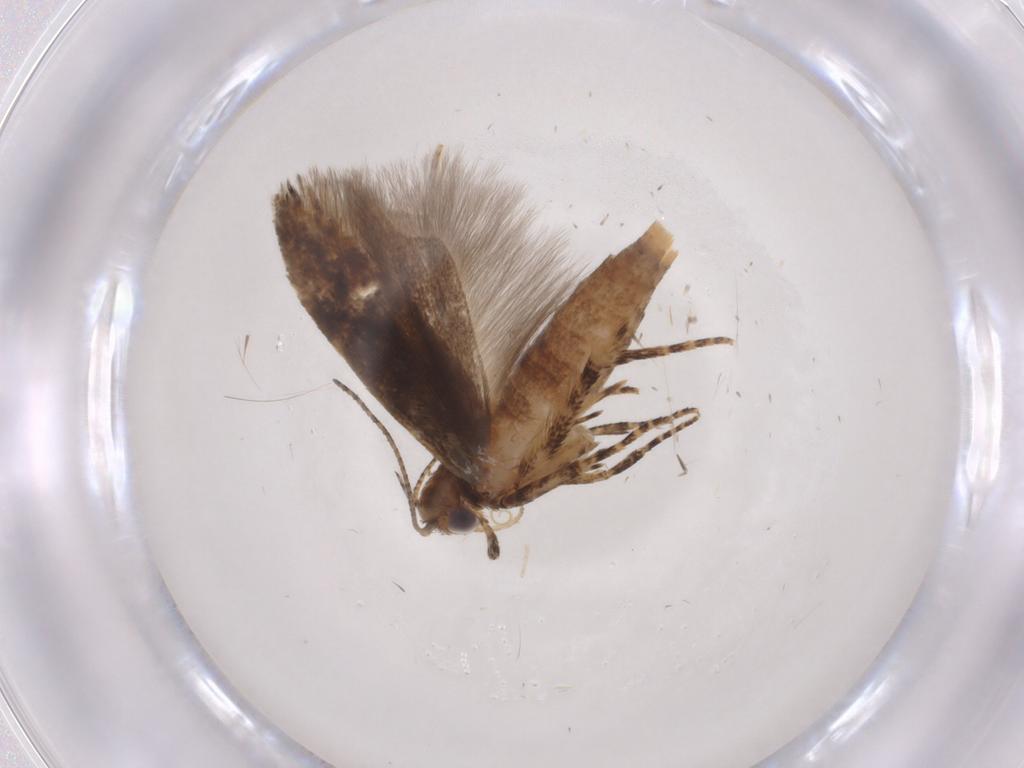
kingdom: Animalia
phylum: Arthropoda
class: Insecta
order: Lepidoptera
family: Gelechiidae
